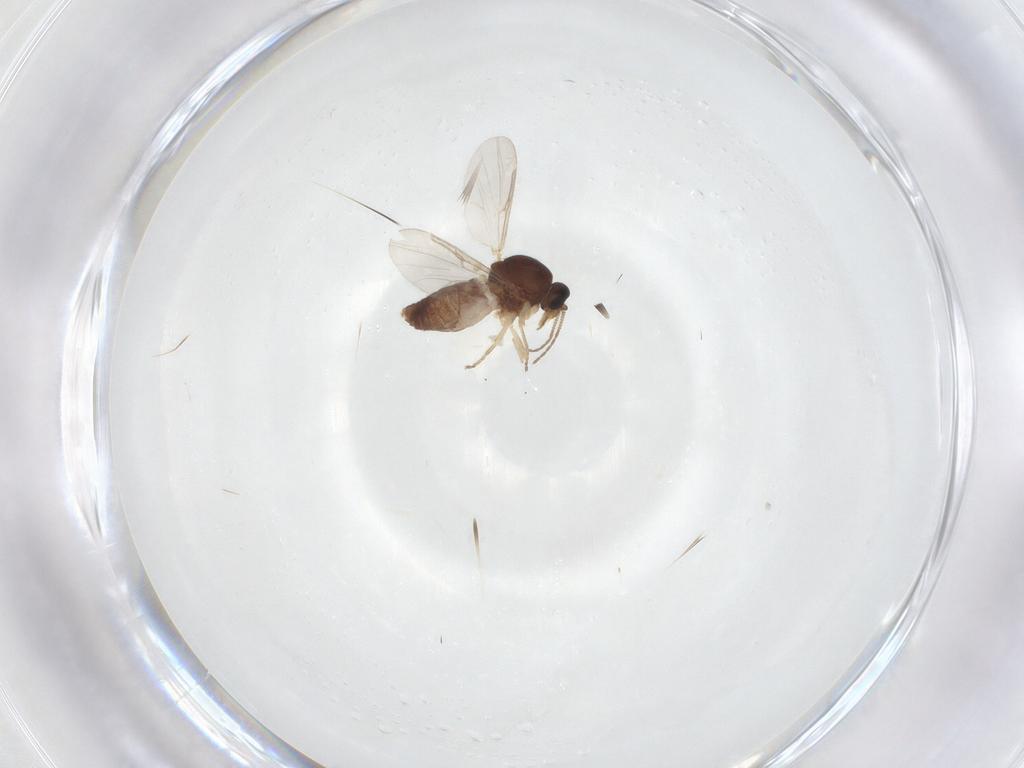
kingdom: Animalia
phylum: Arthropoda
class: Insecta
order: Diptera
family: Ceratopogonidae
